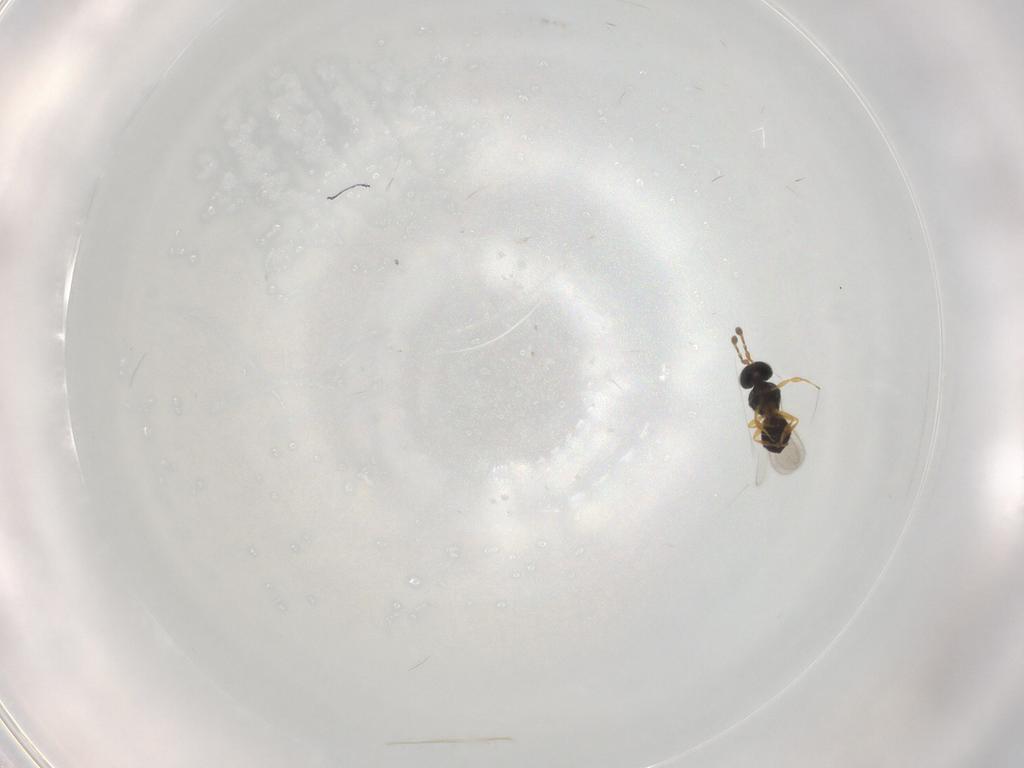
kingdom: Animalia
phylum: Arthropoda
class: Insecta
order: Hymenoptera
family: Scelionidae
